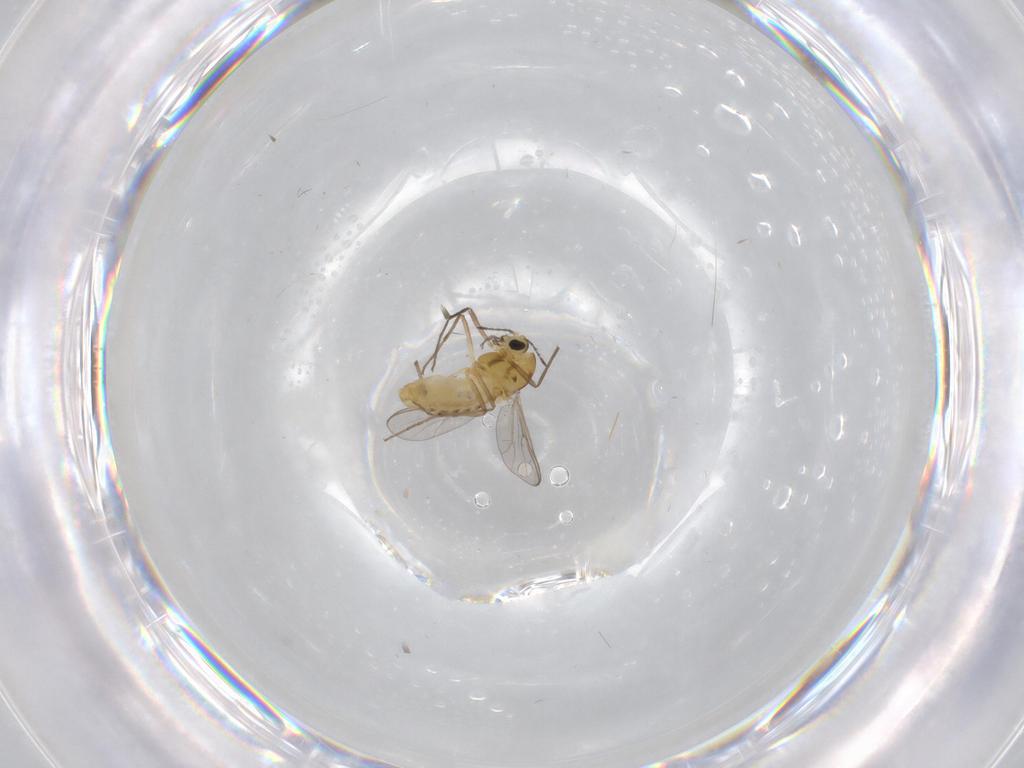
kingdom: Animalia
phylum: Arthropoda
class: Insecta
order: Diptera
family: Chironomidae
